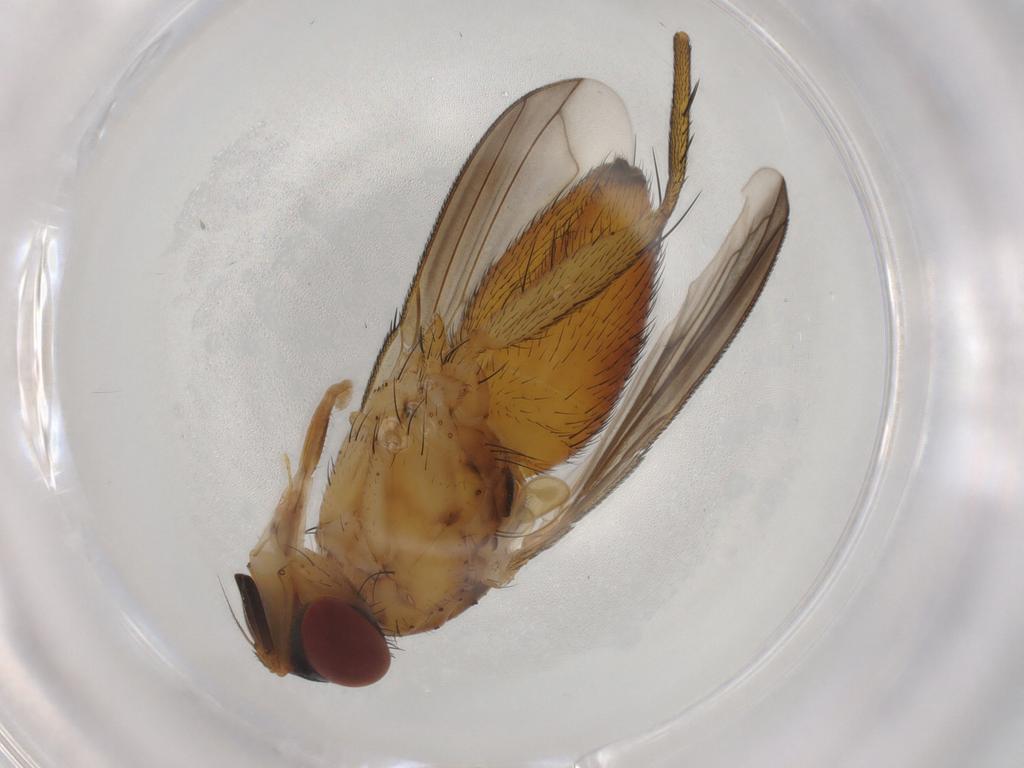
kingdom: Animalia
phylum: Arthropoda
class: Insecta
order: Diptera
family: Tachinidae
